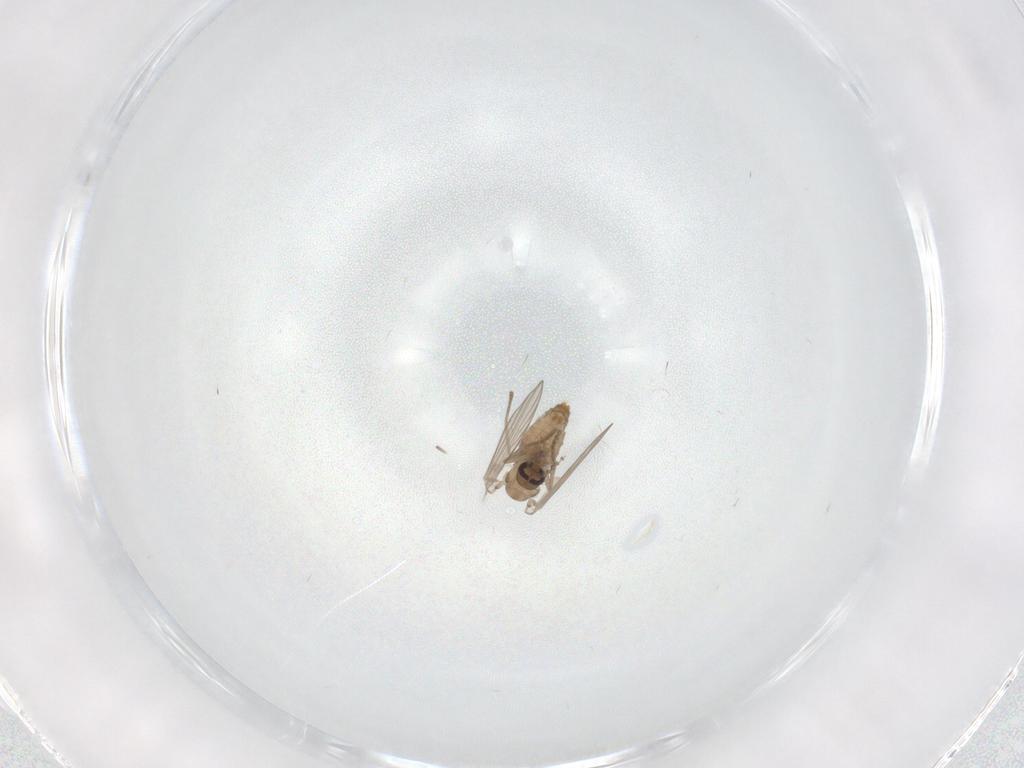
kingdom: Animalia
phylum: Arthropoda
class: Insecta
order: Diptera
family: Psychodidae
